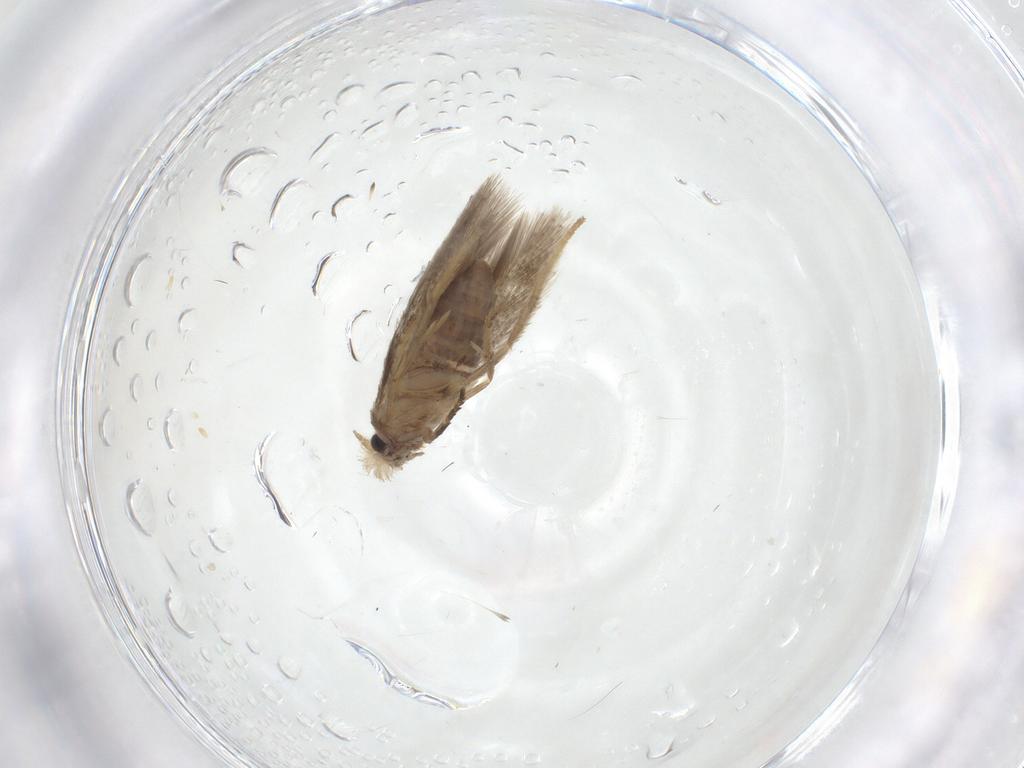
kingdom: Animalia
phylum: Arthropoda
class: Insecta
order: Lepidoptera
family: Nepticulidae
